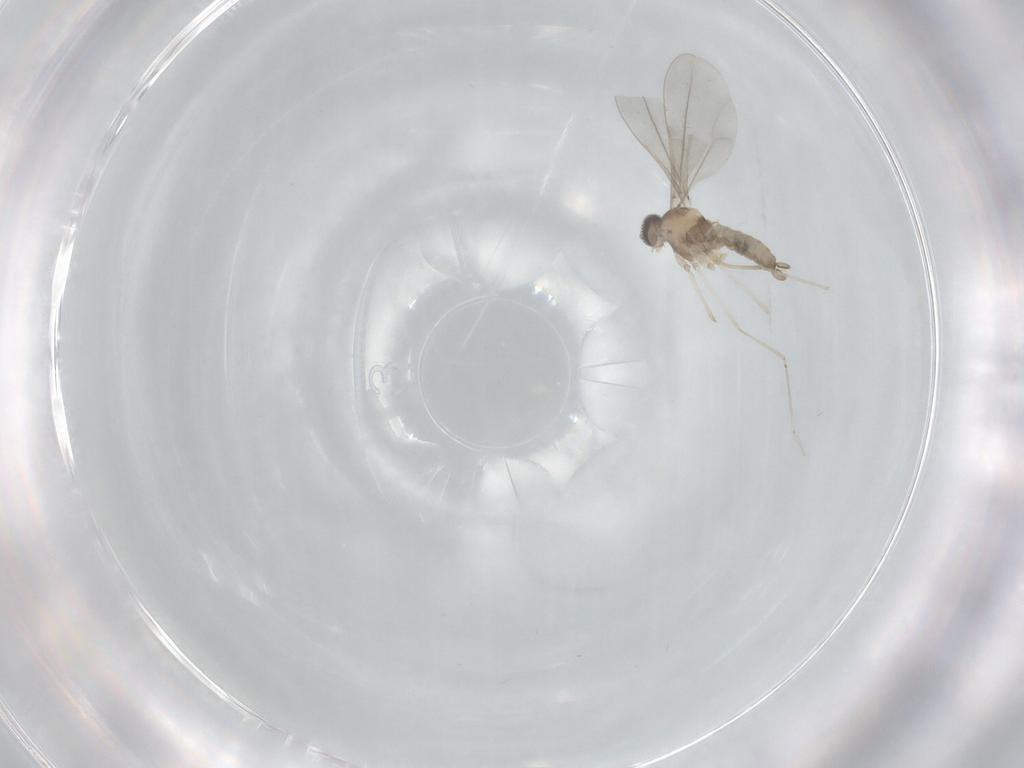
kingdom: Animalia
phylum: Arthropoda
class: Insecta
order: Diptera
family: Cecidomyiidae
